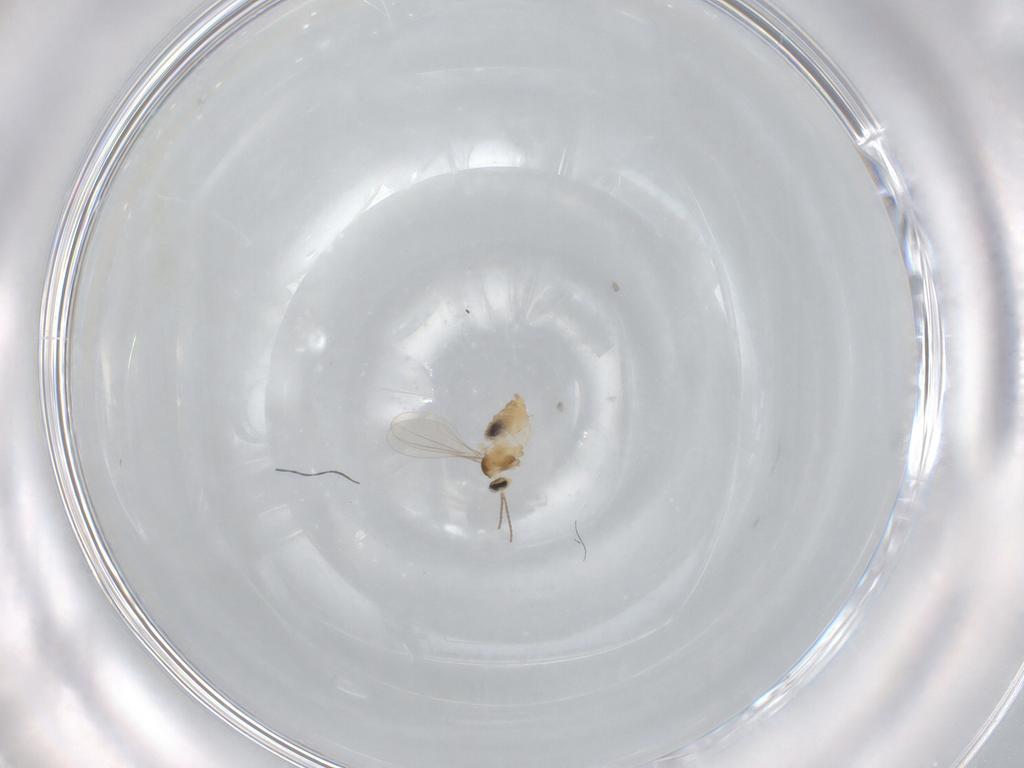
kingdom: Animalia
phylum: Arthropoda
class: Insecta
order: Diptera
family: Cecidomyiidae
